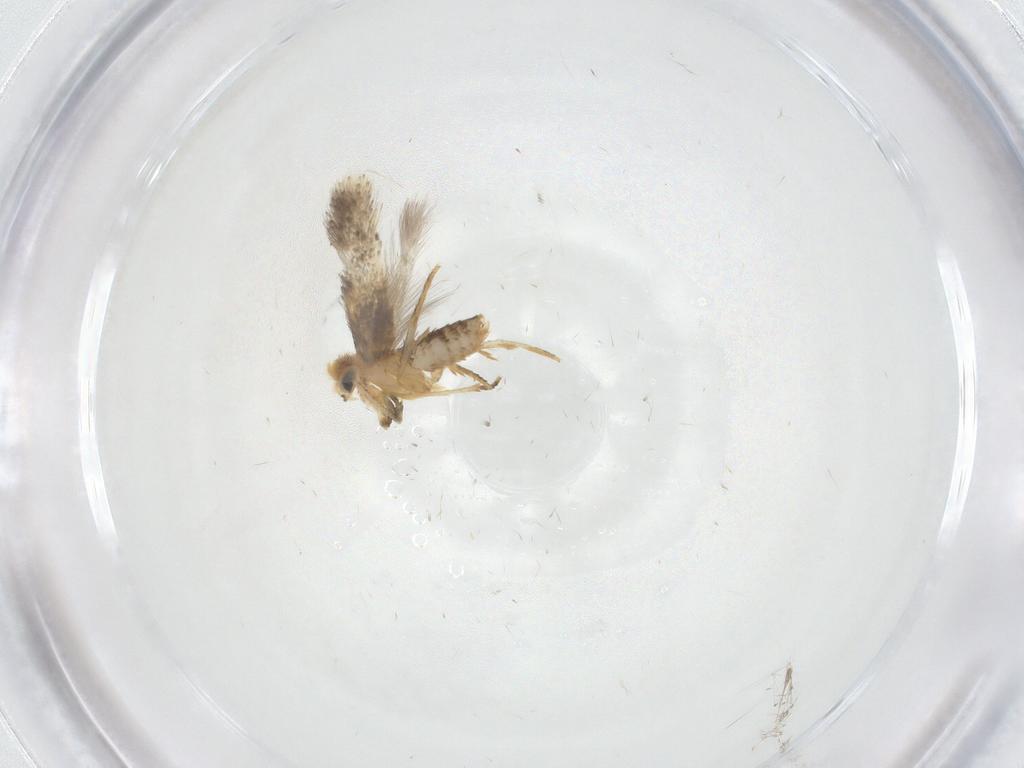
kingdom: Animalia
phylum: Arthropoda
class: Insecta
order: Lepidoptera
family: Nepticulidae
